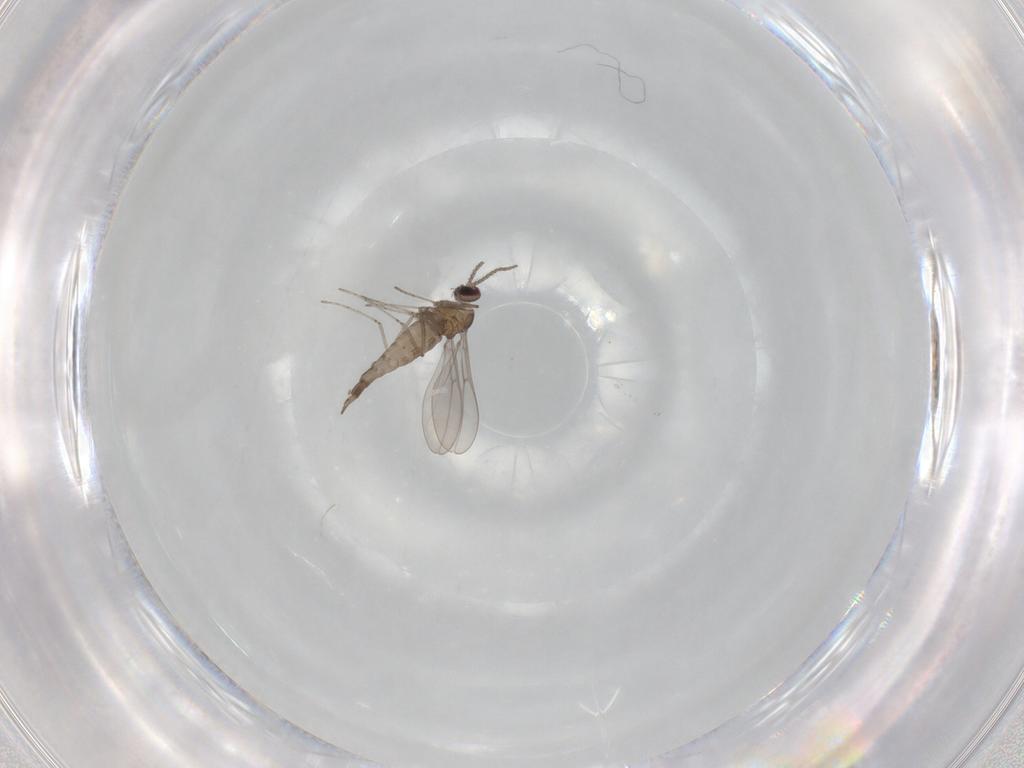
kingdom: Animalia
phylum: Arthropoda
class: Insecta
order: Diptera
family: Cecidomyiidae
